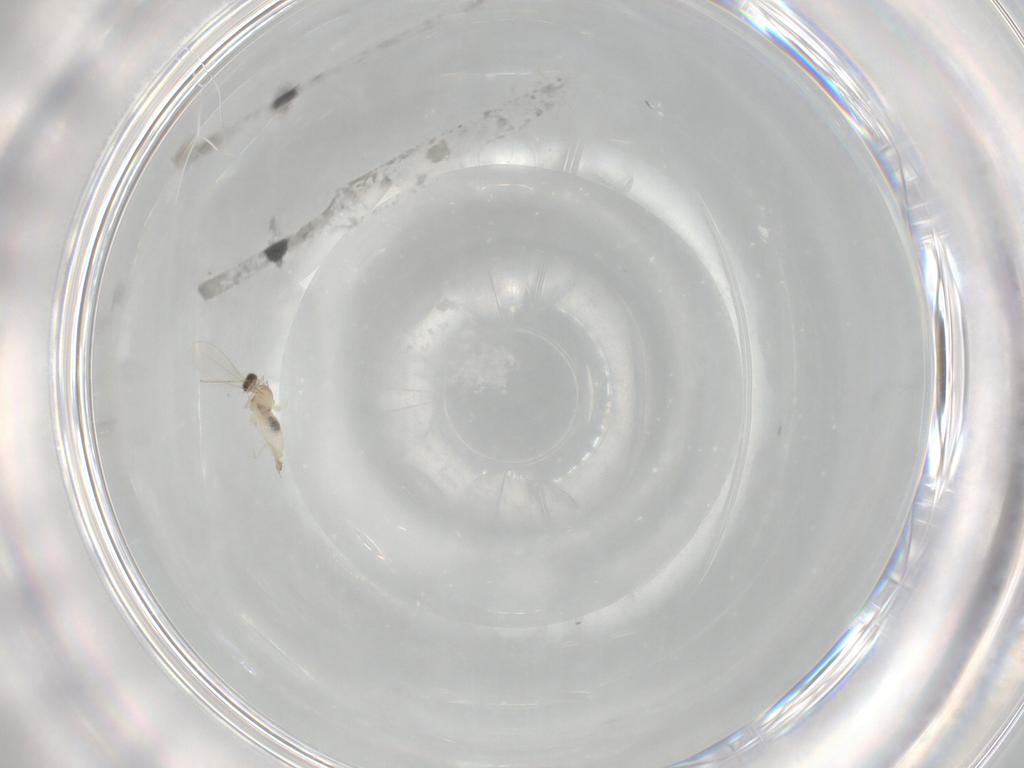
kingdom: Animalia
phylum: Arthropoda
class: Insecta
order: Diptera
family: Cecidomyiidae
